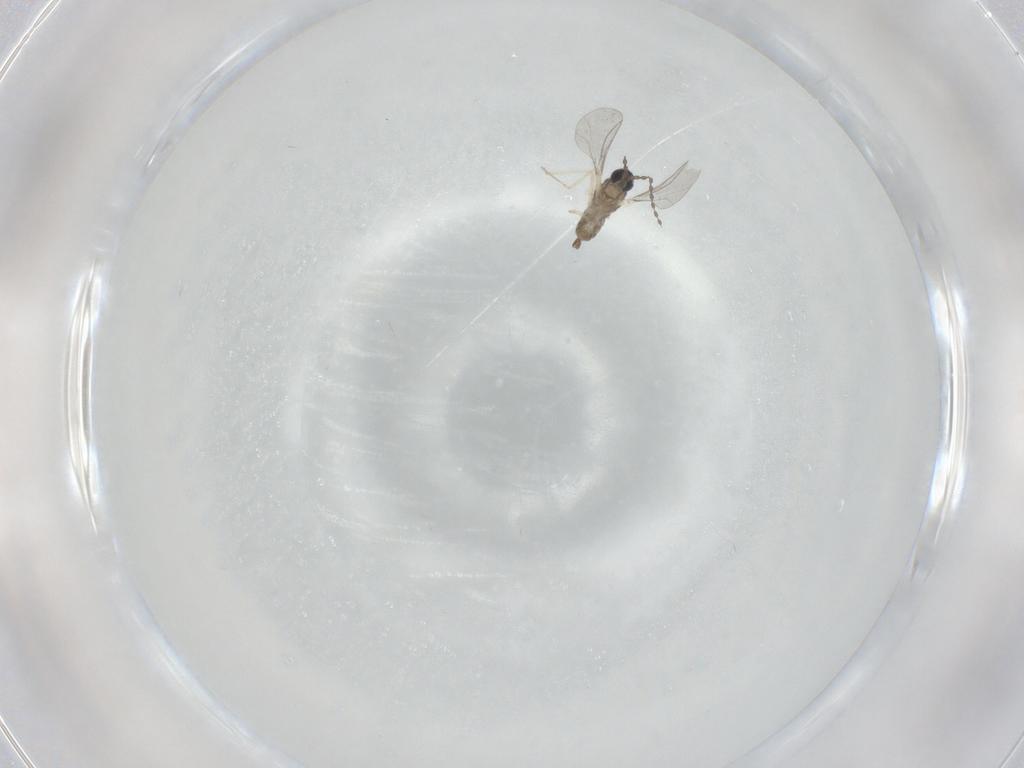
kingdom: Animalia
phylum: Arthropoda
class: Insecta
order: Diptera
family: Cecidomyiidae
